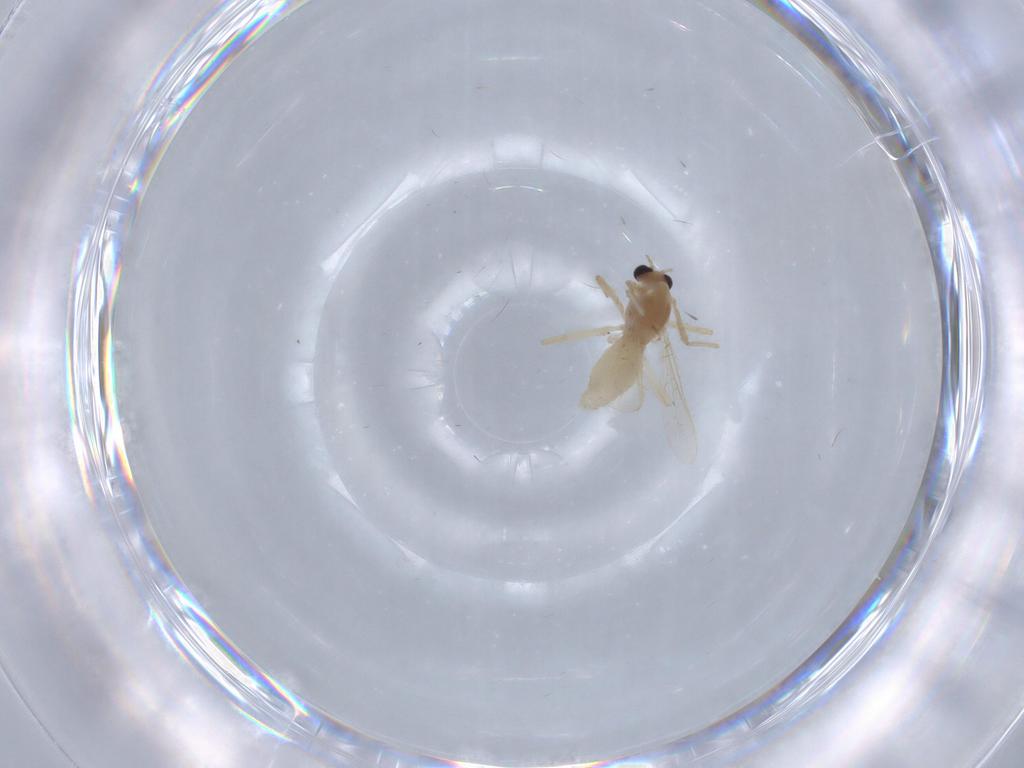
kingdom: Animalia
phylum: Arthropoda
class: Insecta
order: Diptera
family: Chironomidae
